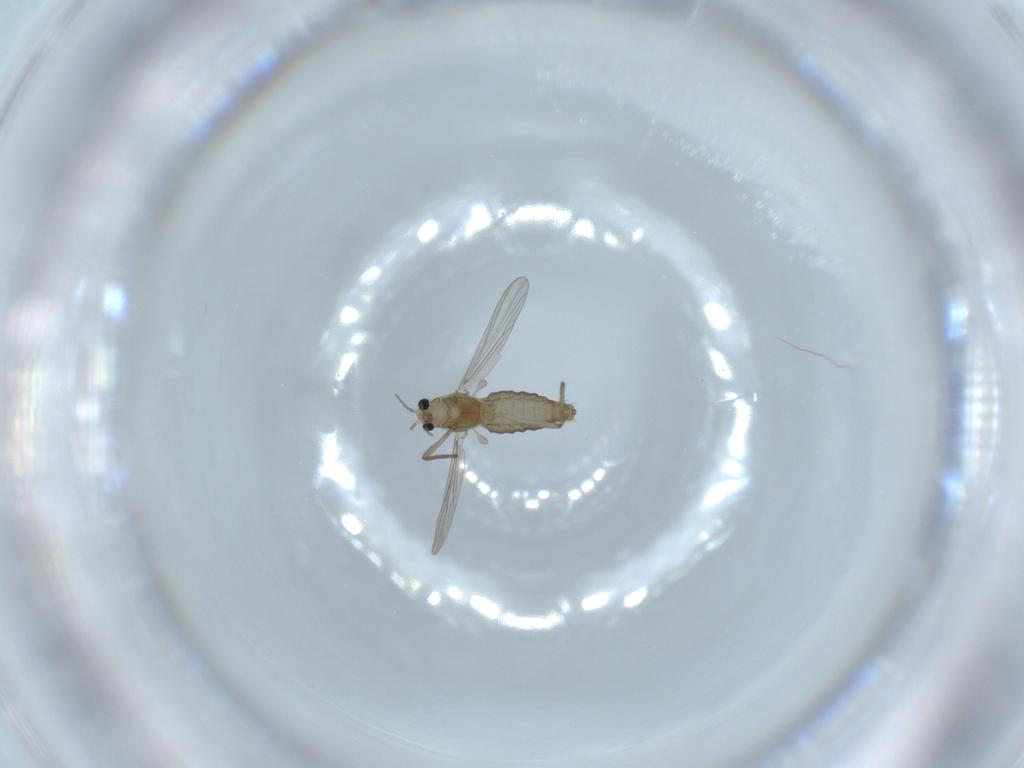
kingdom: Animalia
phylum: Arthropoda
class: Insecta
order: Diptera
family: Chironomidae
